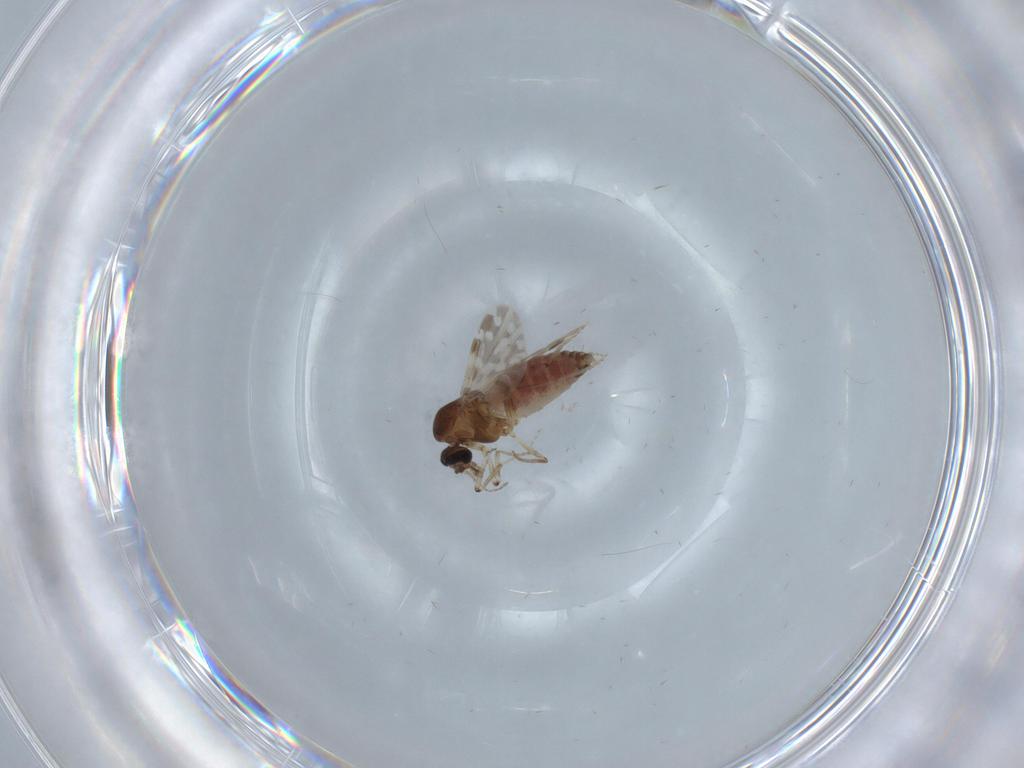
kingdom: Animalia
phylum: Arthropoda
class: Insecta
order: Diptera
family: Chloropidae
